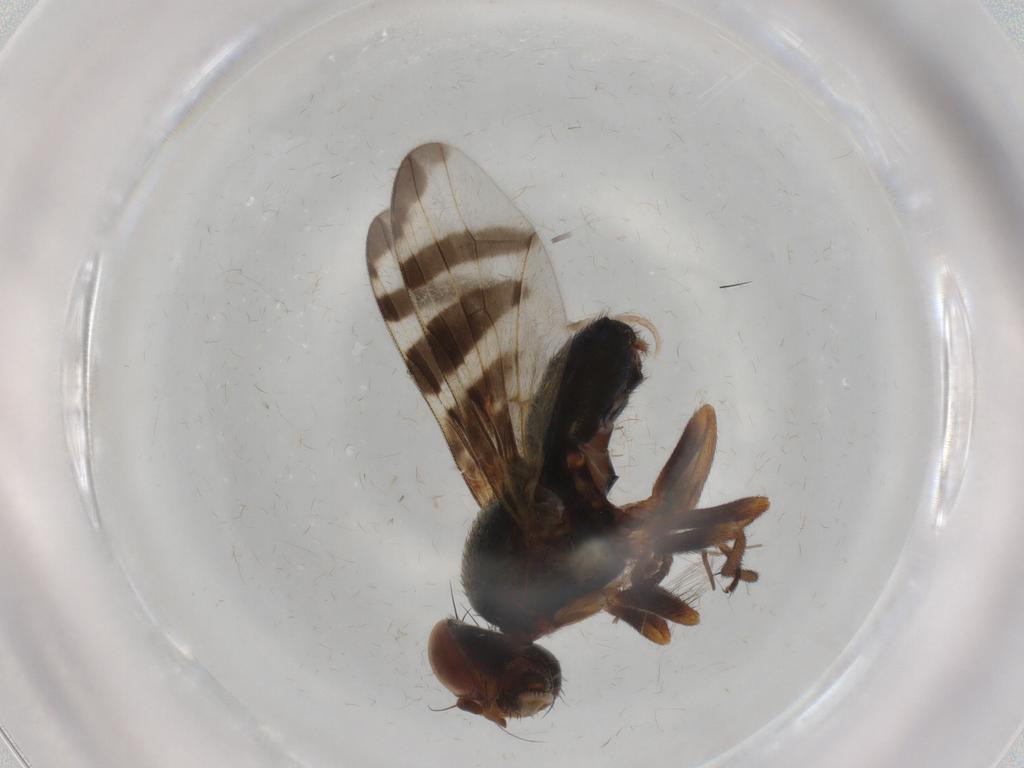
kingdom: Animalia
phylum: Arthropoda
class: Insecta
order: Diptera
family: Platystomatidae
